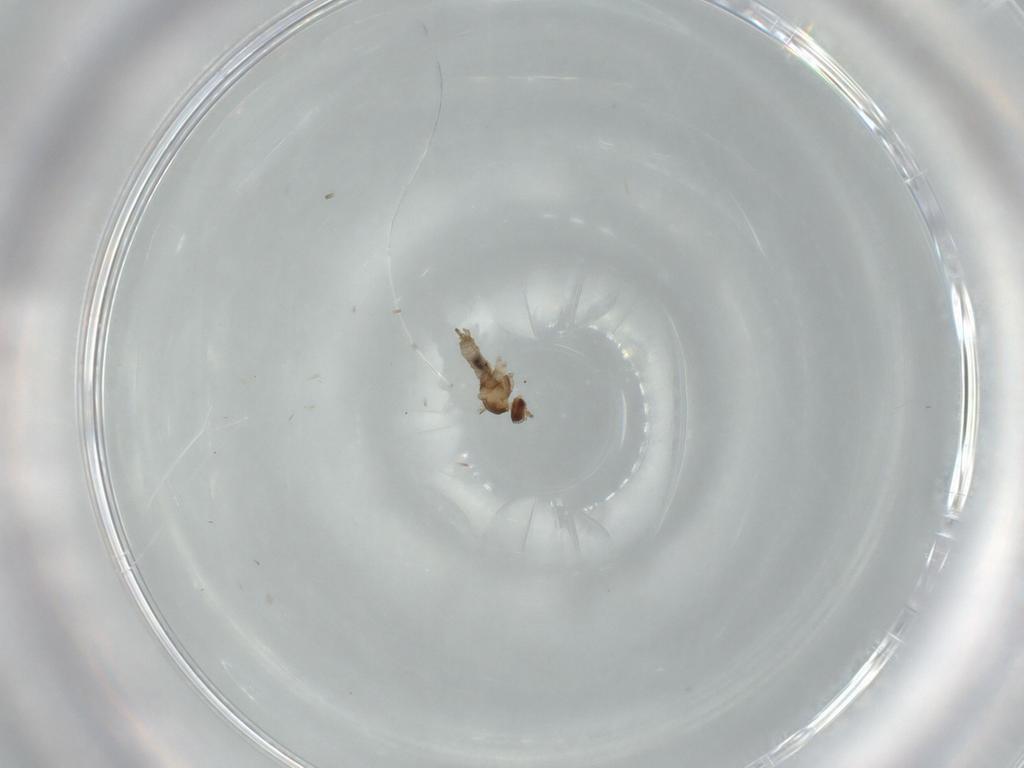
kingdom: Animalia
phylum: Arthropoda
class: Insecta
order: Diptera
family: Cecidomyiidae
